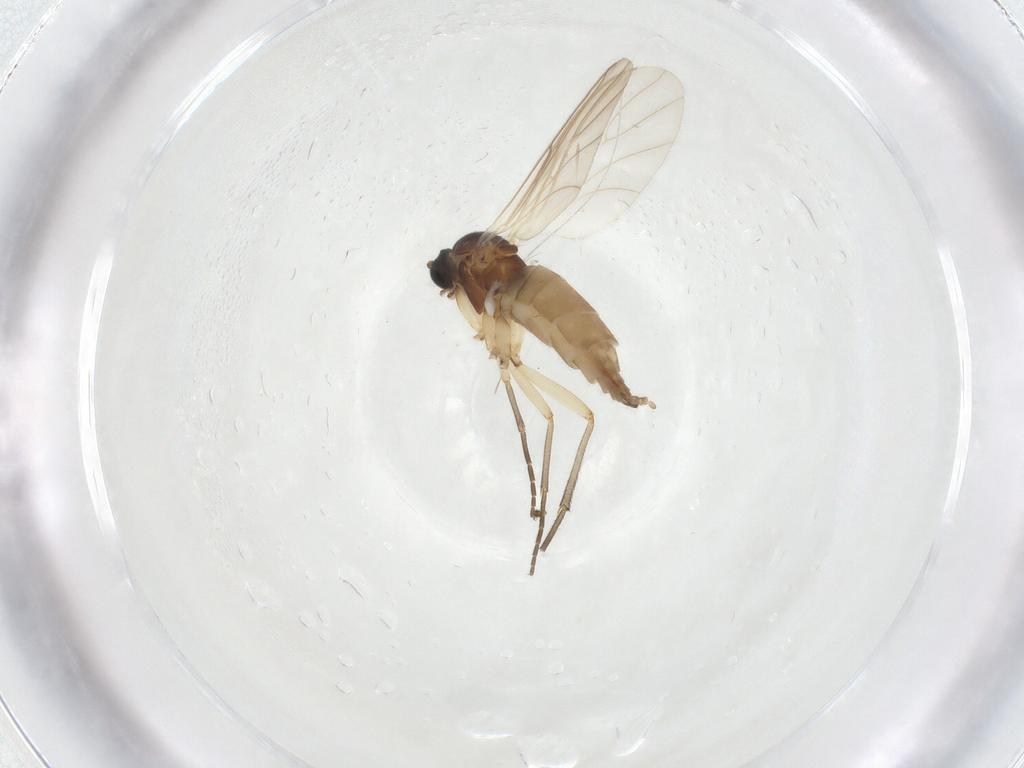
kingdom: Animalia
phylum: Arthropoda
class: Insecta
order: Diptera
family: Heleomyzidae
